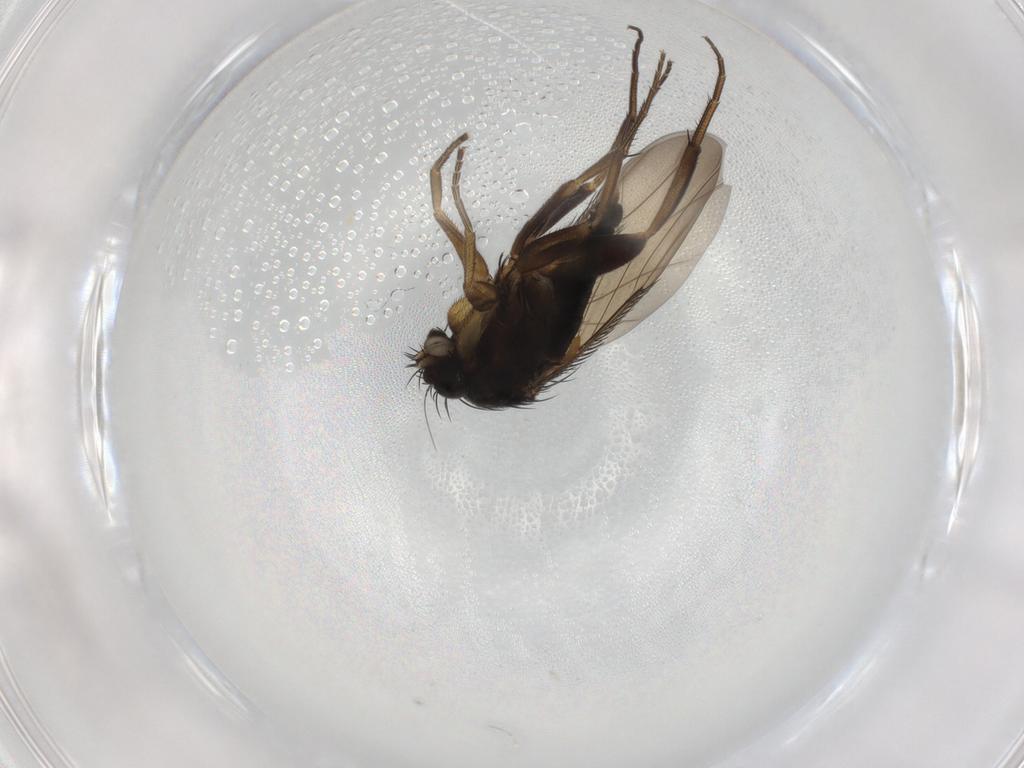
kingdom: Animalia
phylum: Arthropoda
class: Insecta
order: Diptera
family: Phoridae
